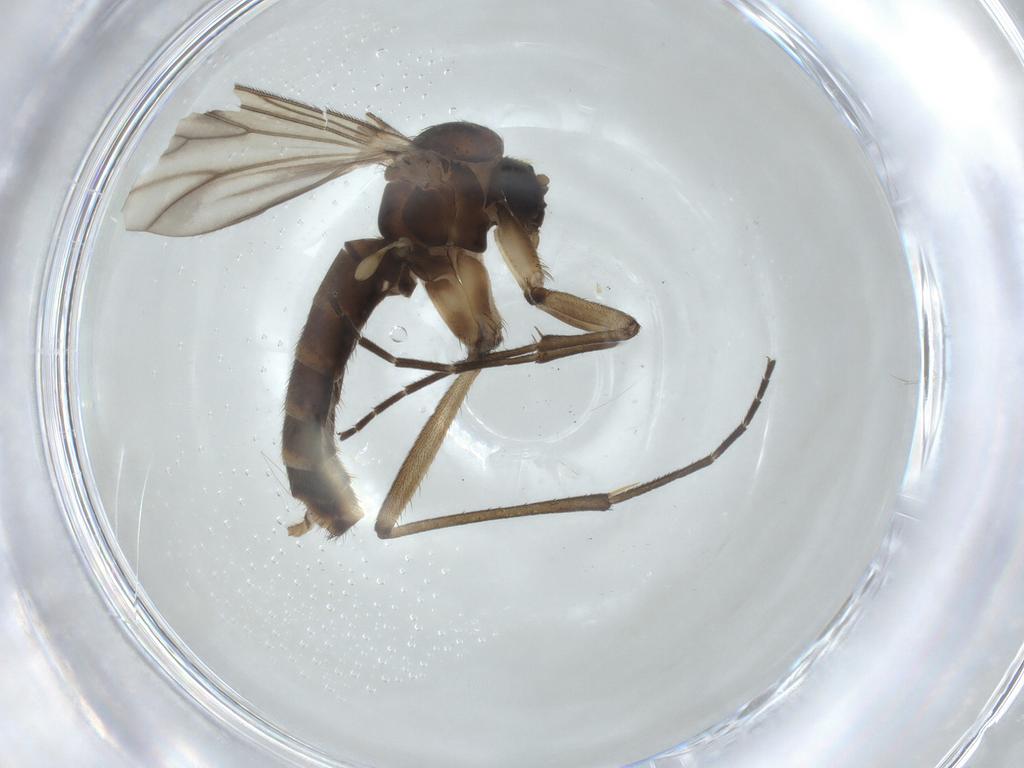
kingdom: Animalia
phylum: Arthropoda
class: Insecta
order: Diptera
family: Mycetophilidae
